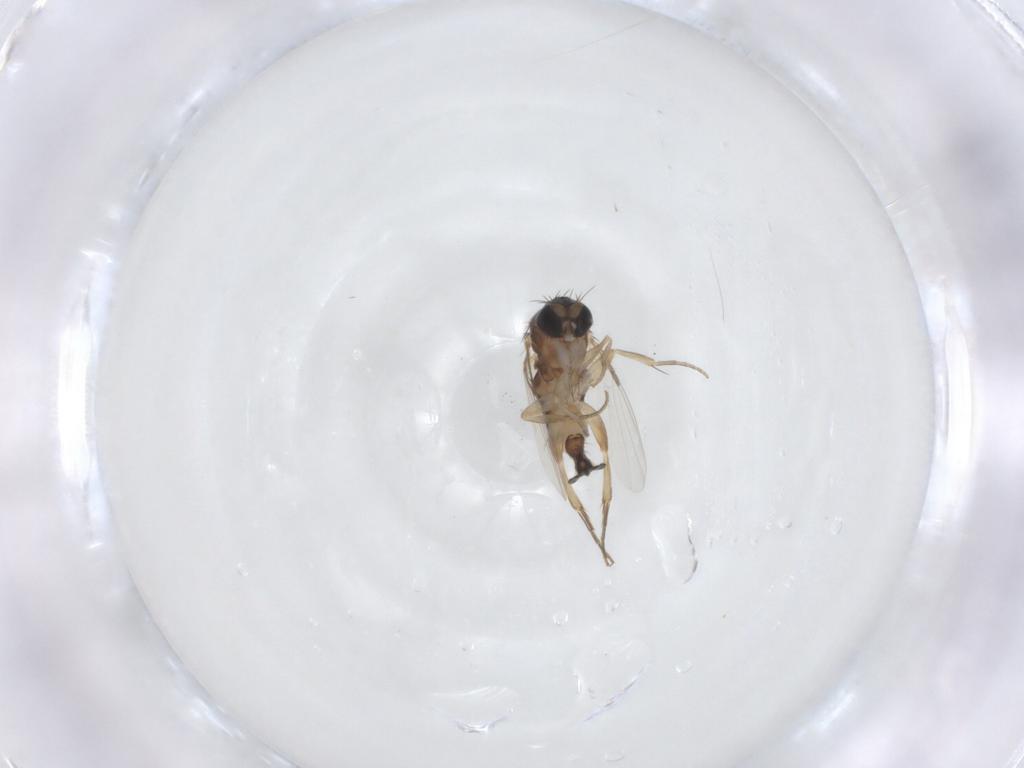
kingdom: Animalia
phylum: Arthropoda
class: Insecta
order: Diptera
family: Phoridae
